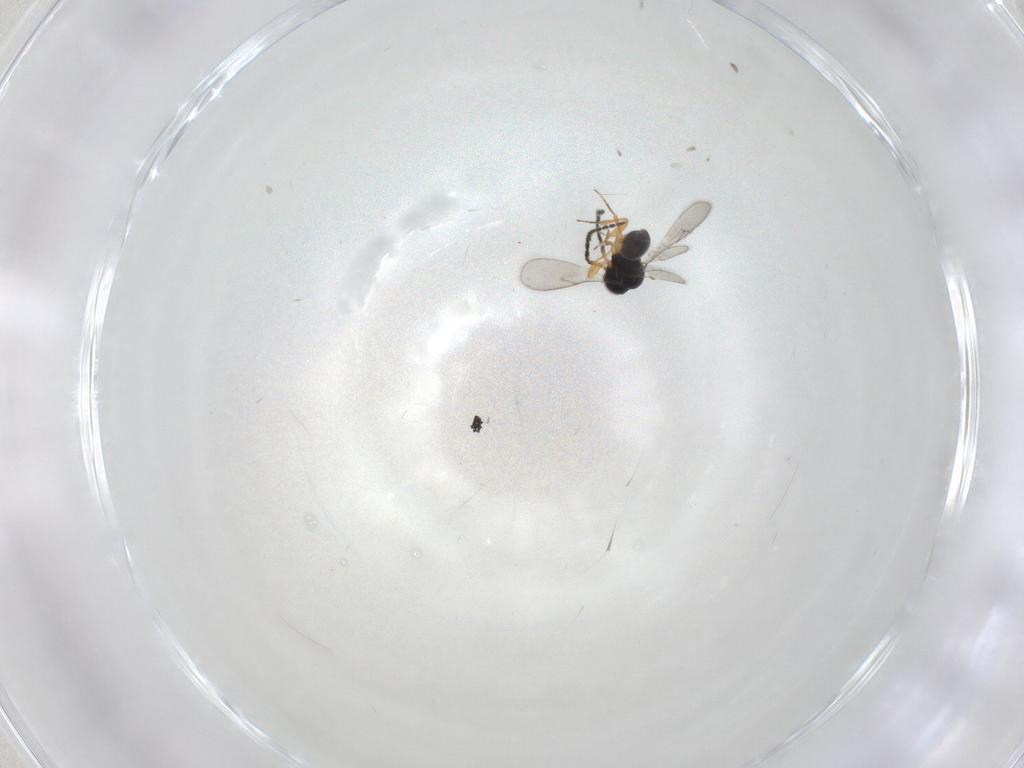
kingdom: Animalia
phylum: Arthropoda
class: Insecta
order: Hymenoptera
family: Scelionidae
